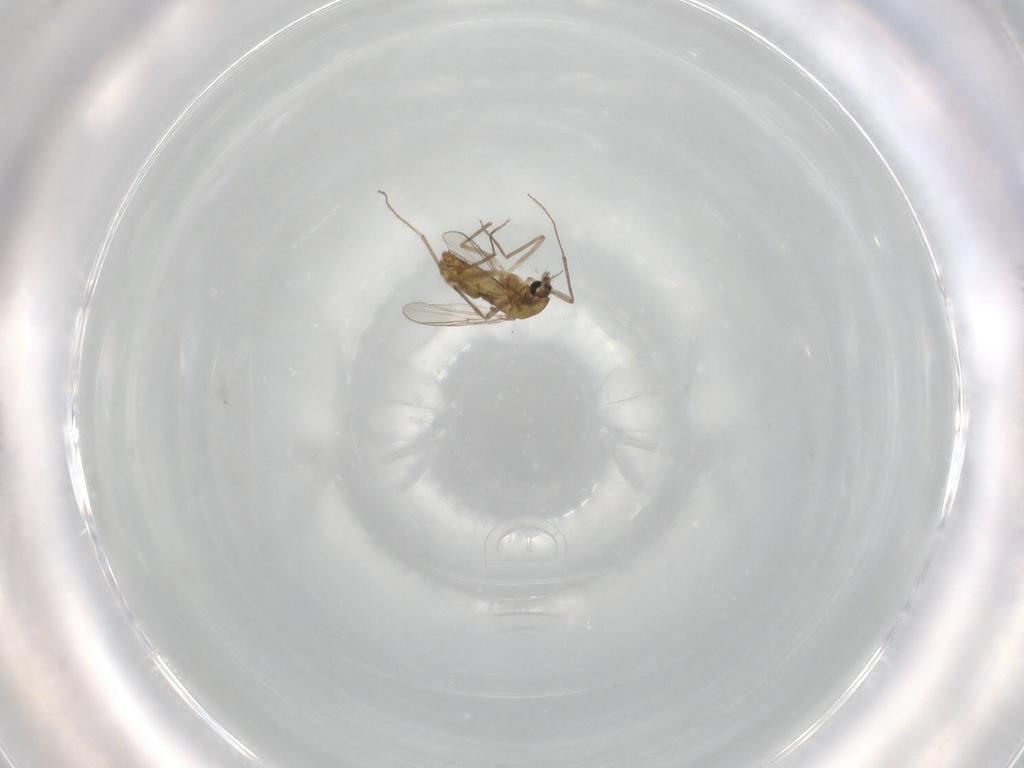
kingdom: Animalia
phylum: Arthropoda
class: Insecta
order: Diptera
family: Chironomidae
